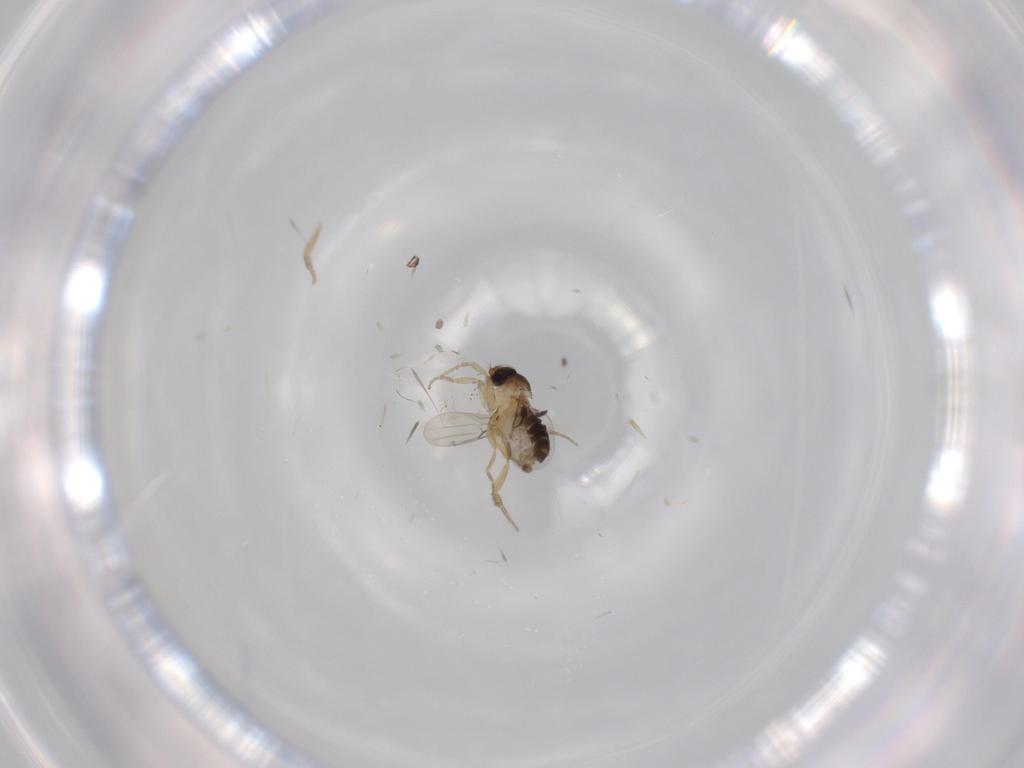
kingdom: Animalia
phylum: Arthropoda
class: Insecta
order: Diptera
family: Phoridae
